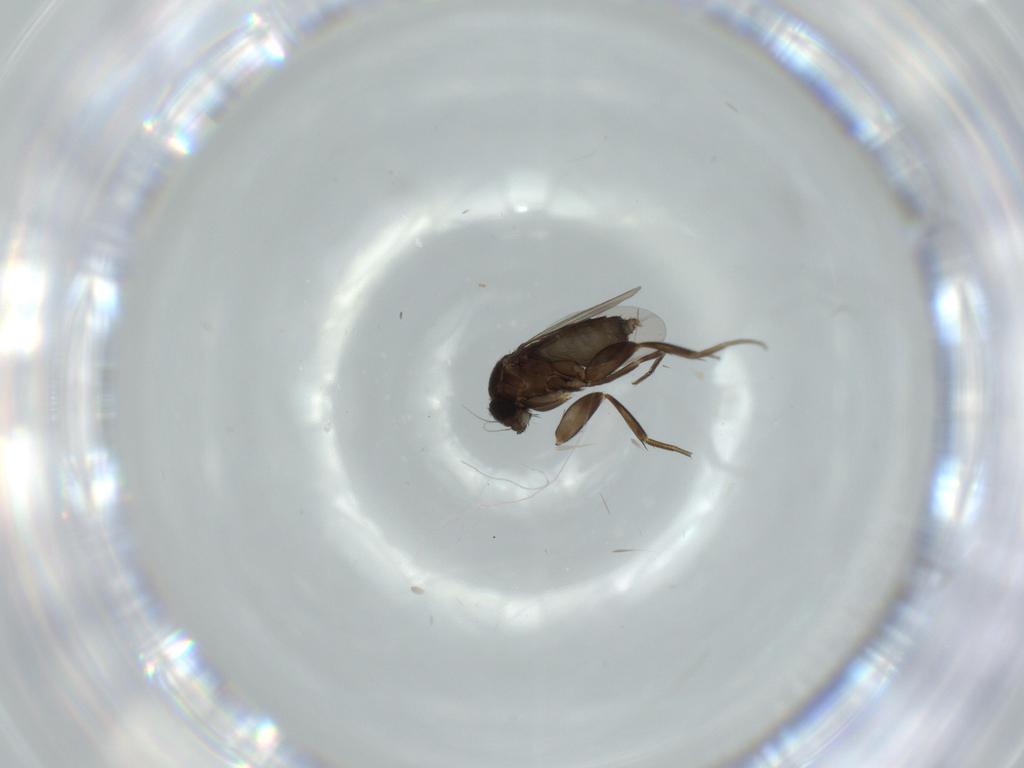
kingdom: Animalia
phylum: Arthropoda
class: Insecta
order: Diptera
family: Phoridae
